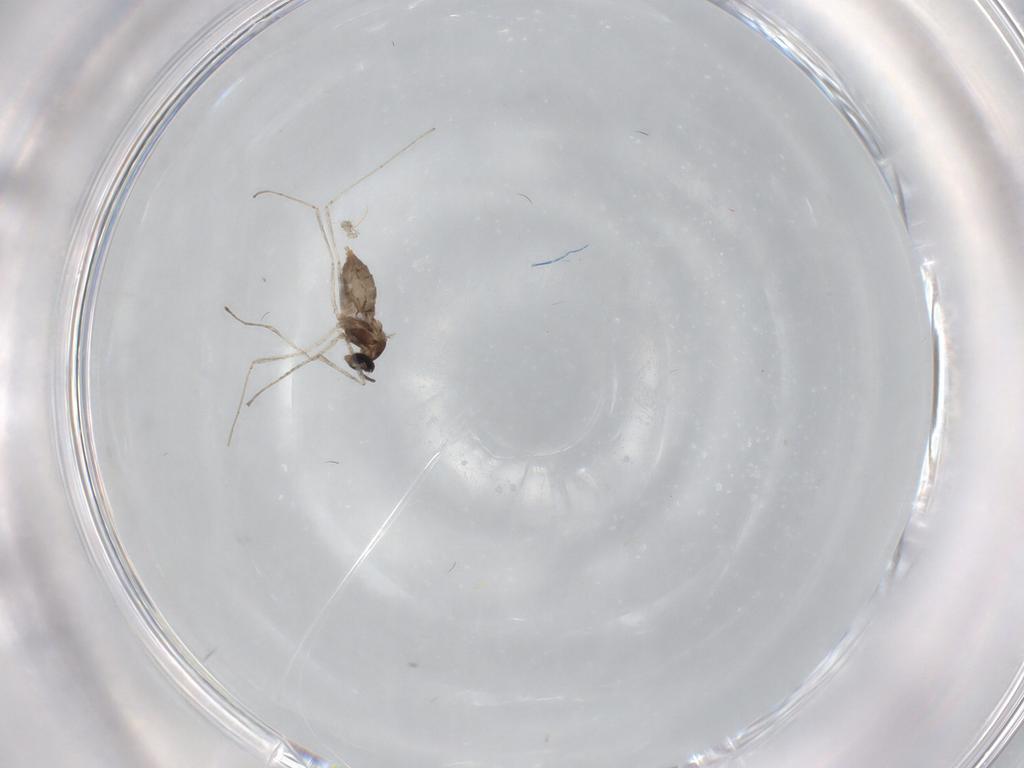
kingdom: Animalia
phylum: Arthropoda
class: Insecta
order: Diptera
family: Cecidomyiidae
